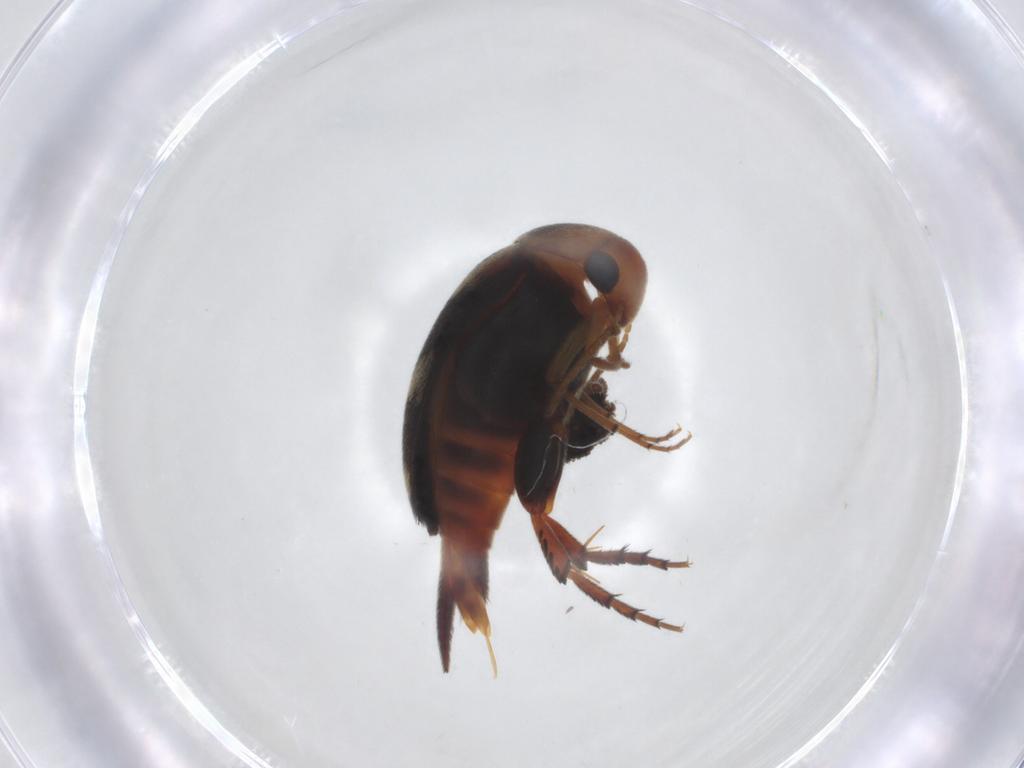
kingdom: Animalia
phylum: Arthropoda
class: Insecta
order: Coleoptera
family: Mordellidae
